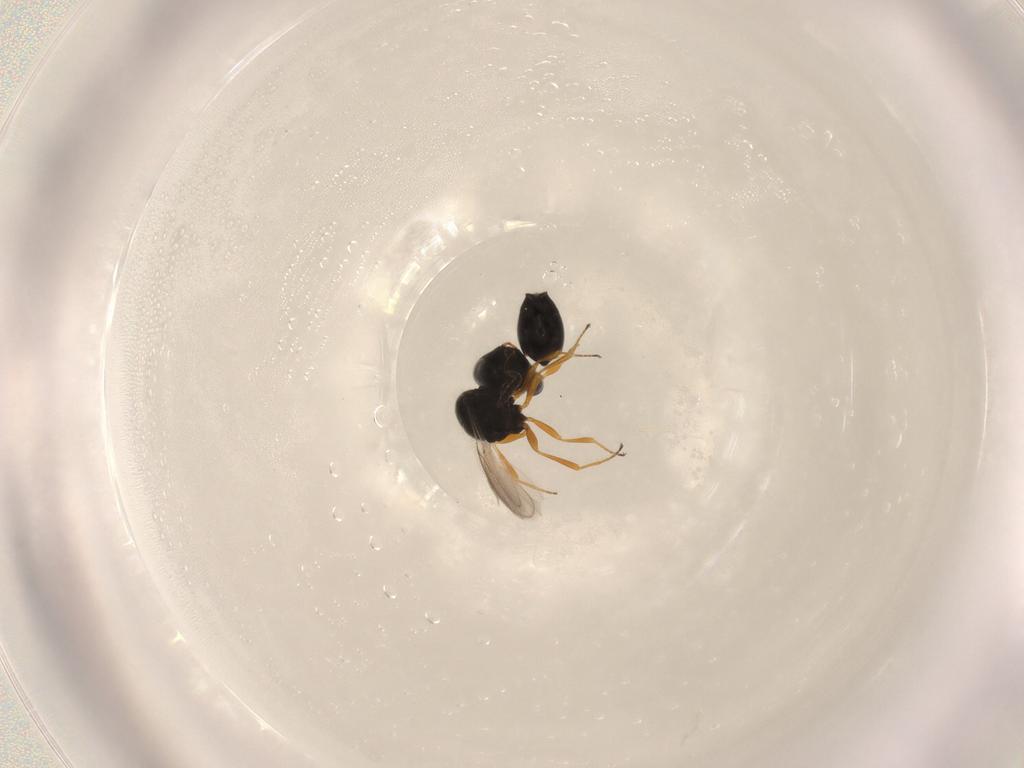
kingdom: Animalia
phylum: Arthropoda
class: Insecta
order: Hymenoptera
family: Scelionidae
